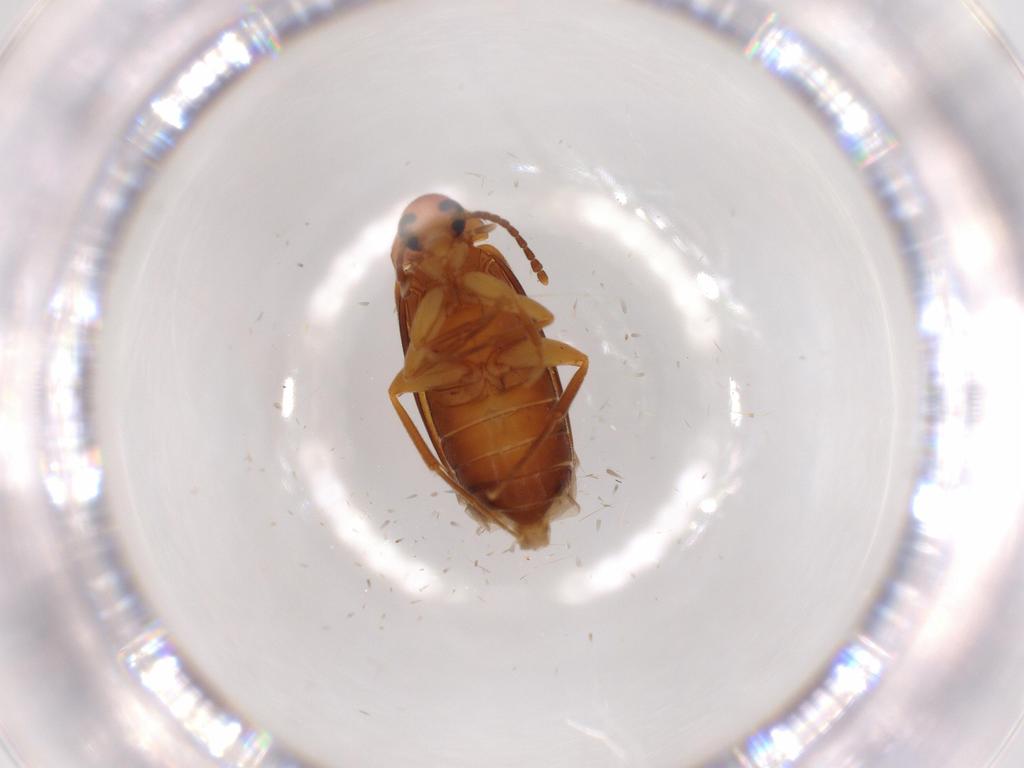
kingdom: Animalia
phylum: Arthropoda
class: Insecta
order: Coleoptera
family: Scraptiidae
